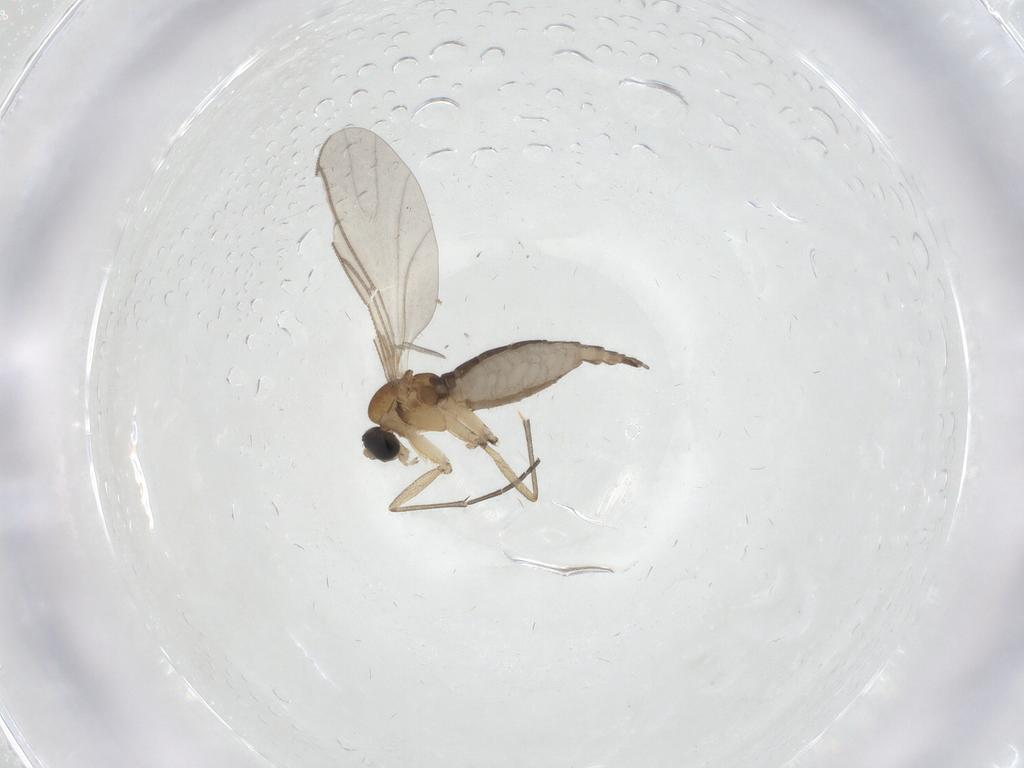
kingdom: Animalia
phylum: Arthropoda
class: Insecta
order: Diptera
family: Sciaridae
